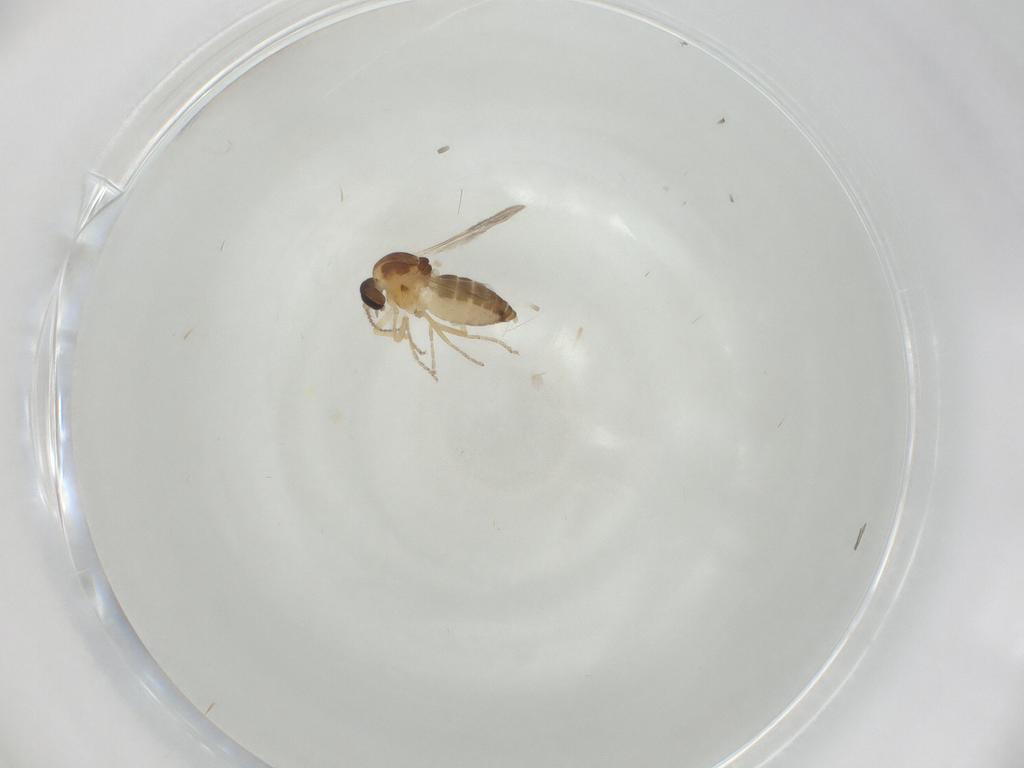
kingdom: Animalia
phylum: Arthropoda
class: Insecta
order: Diptera
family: Ceratopogonidae
